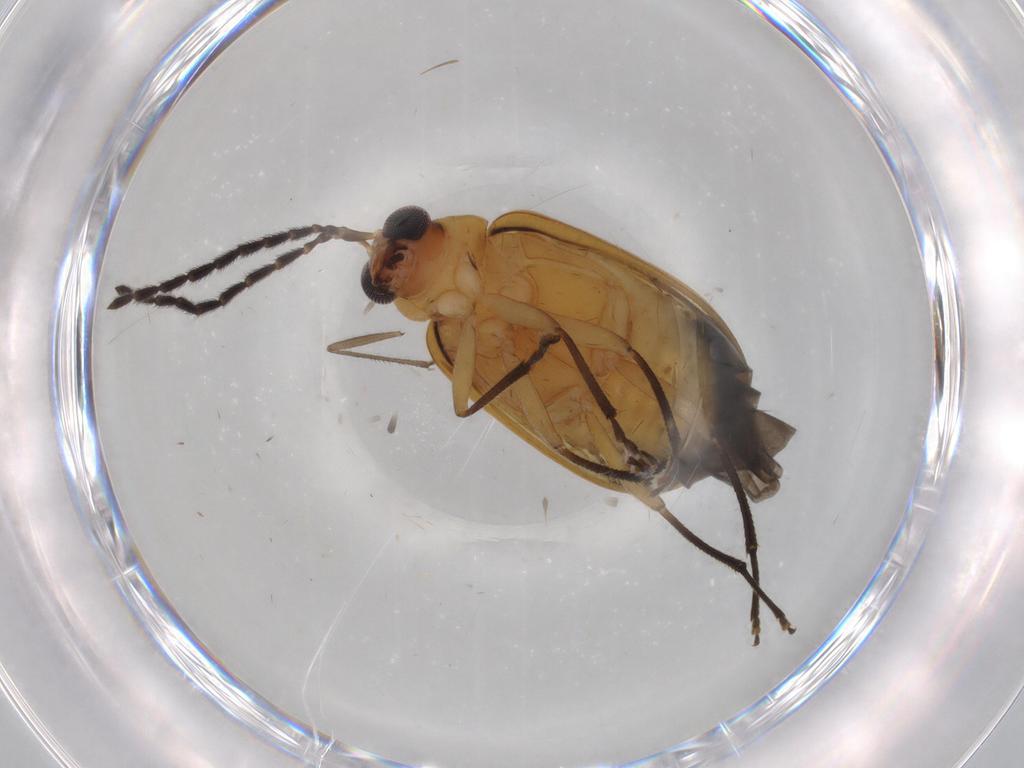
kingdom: Animalia
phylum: Arthropoda
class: Insecta
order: Coleoptera
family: Chrysomelidae
